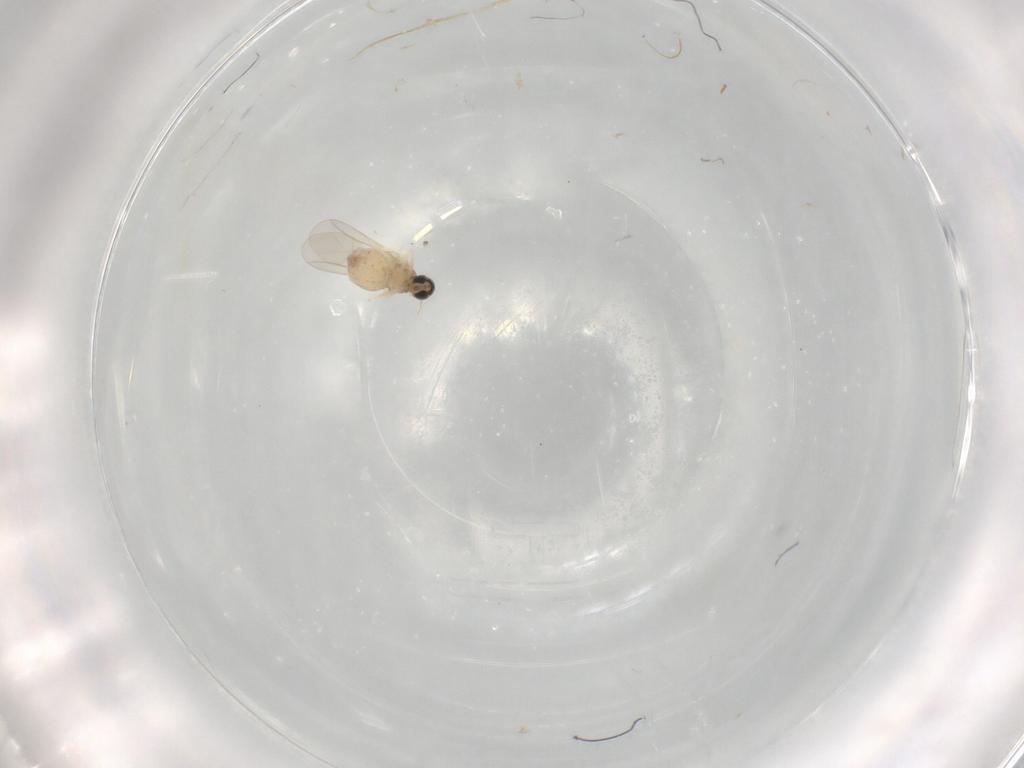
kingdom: Animalia
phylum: Arthropoda
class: Insecta
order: Diptera
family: Cecidomyiidae
